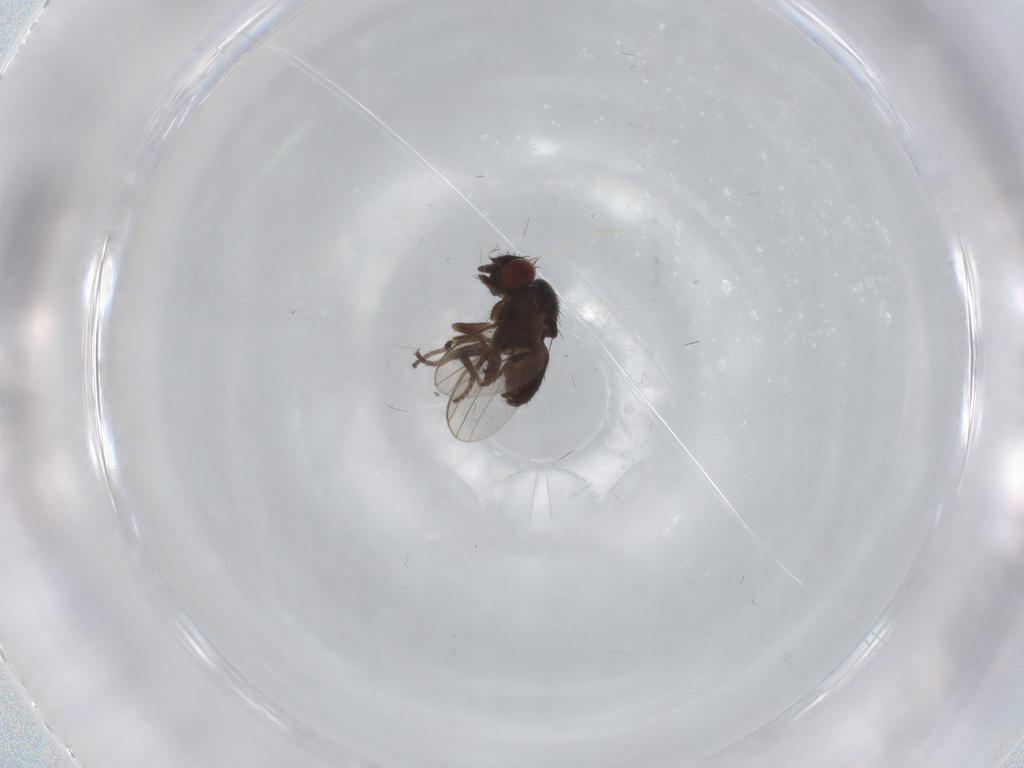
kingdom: Animalia
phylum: Arthropoda
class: Insecta
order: Diptera
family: Milichiidae
